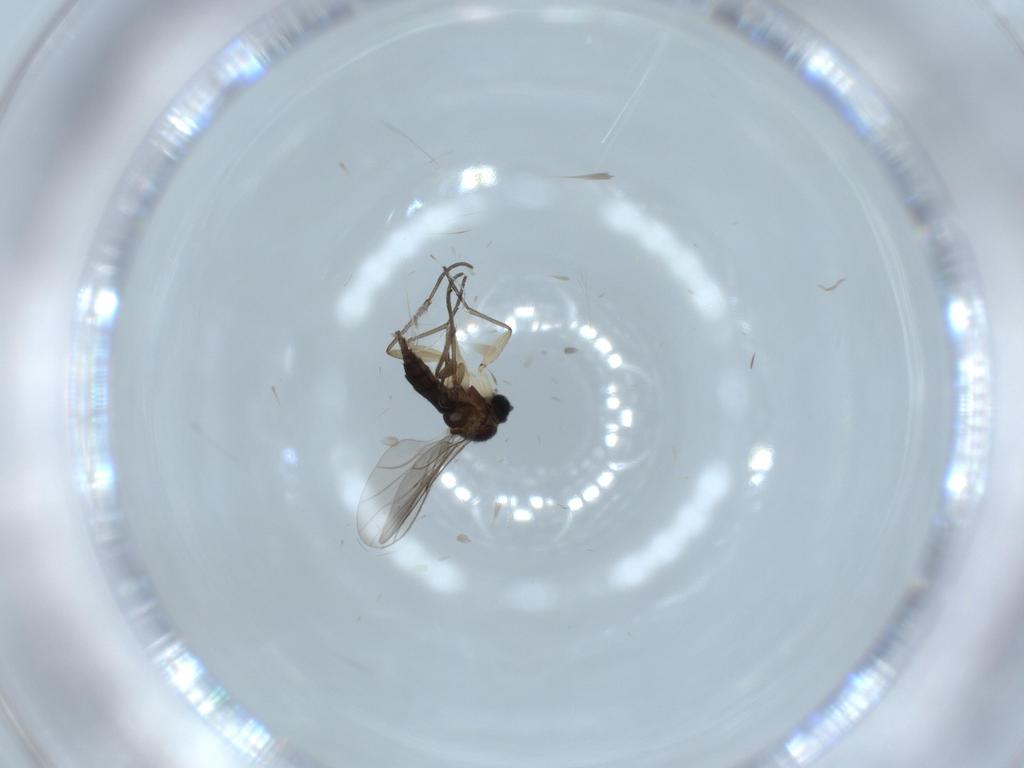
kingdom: Animalia
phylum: Arthropoda
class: Insecta
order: Diptera
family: Sciaridae
